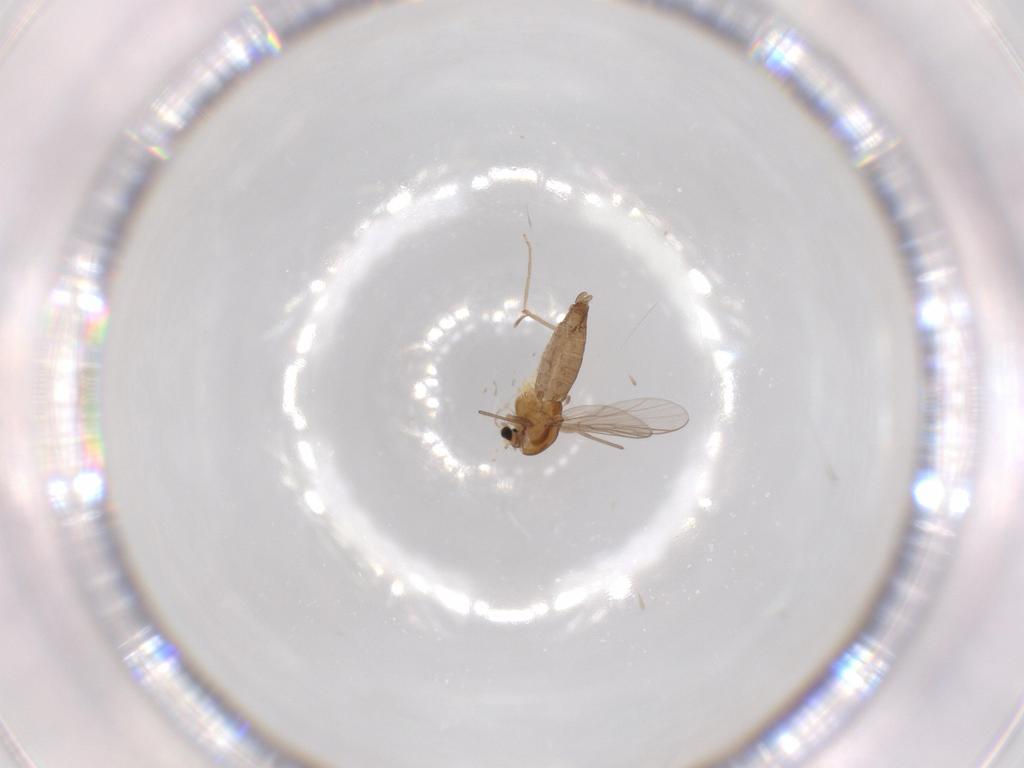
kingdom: Animalia
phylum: Arthropoda
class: Insecta
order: Diptera
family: Chironomidae
